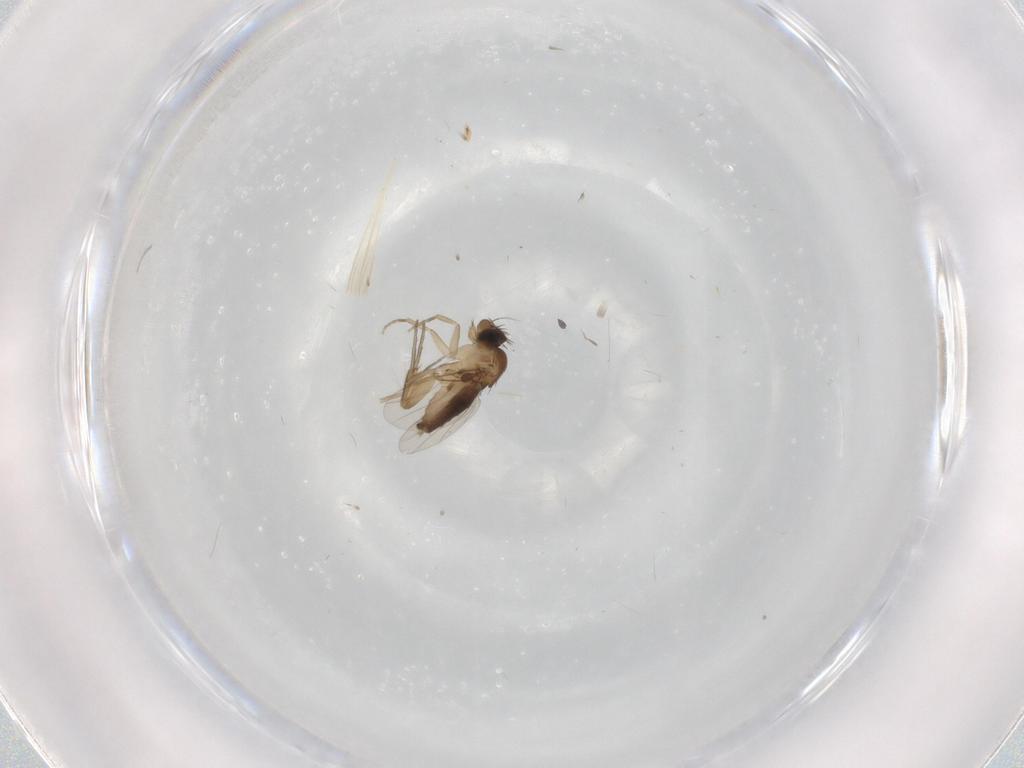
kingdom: Animalia
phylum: Arthropoda
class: Insecta
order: Diptera
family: Phoridae
